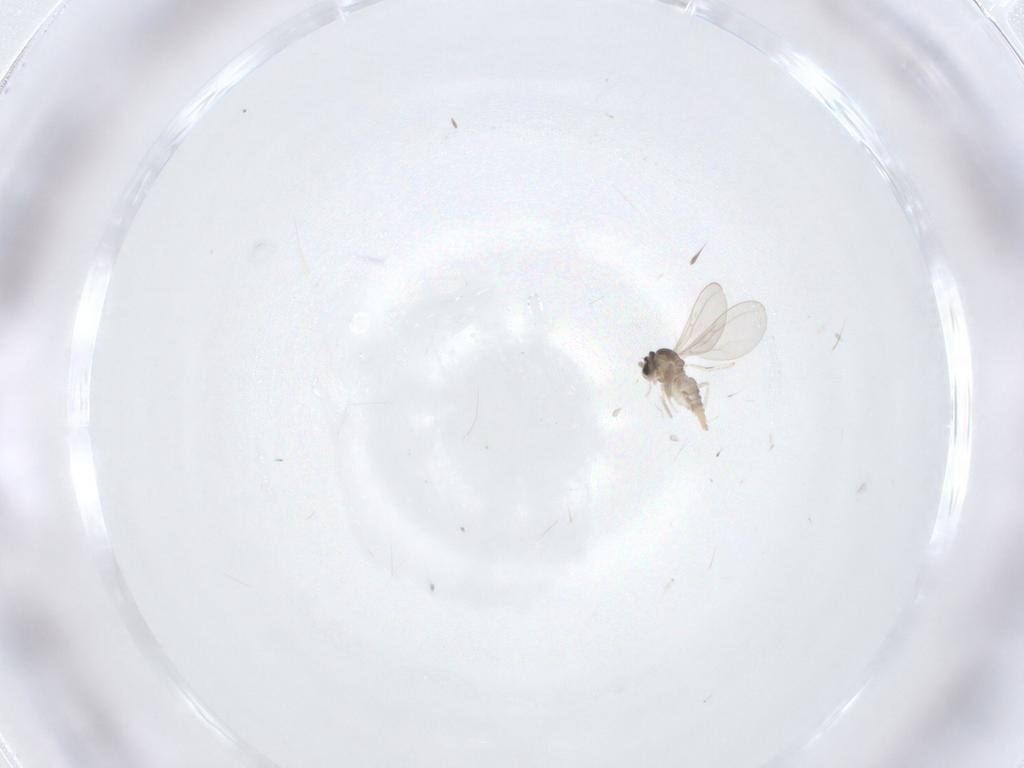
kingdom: Animalia
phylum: Arthropoda
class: Insecta
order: Diptera
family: Cecidomyiidae
